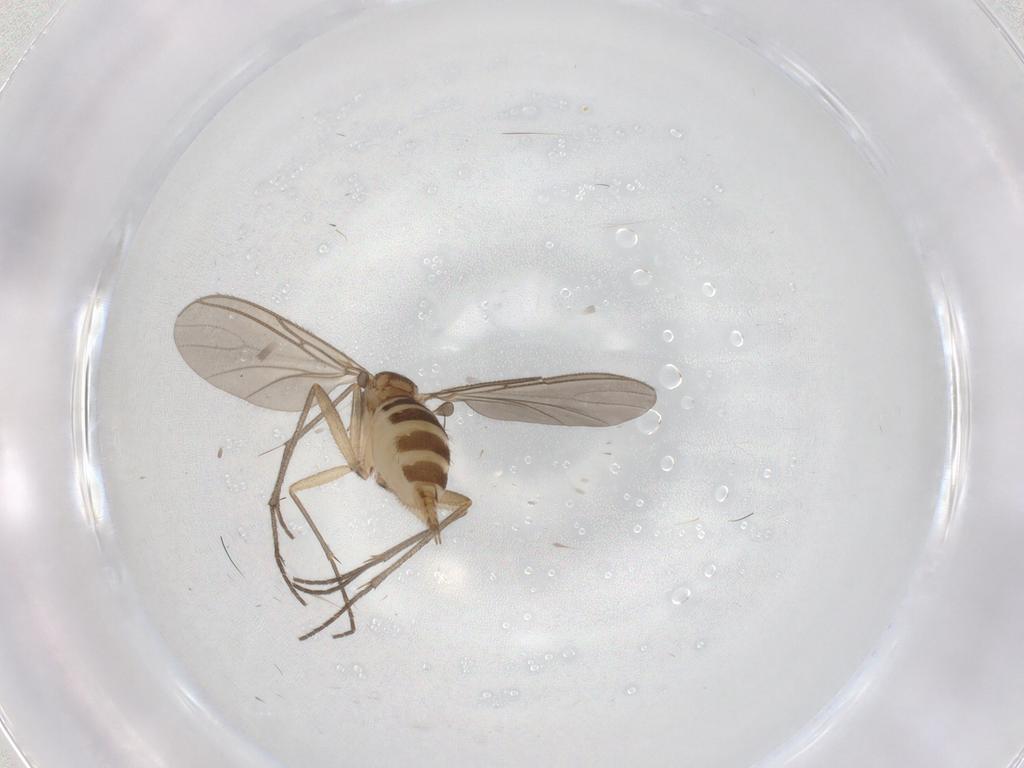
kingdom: Animalia
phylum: Arthropoda
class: Insecta
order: Diptera
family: Sciaridae
